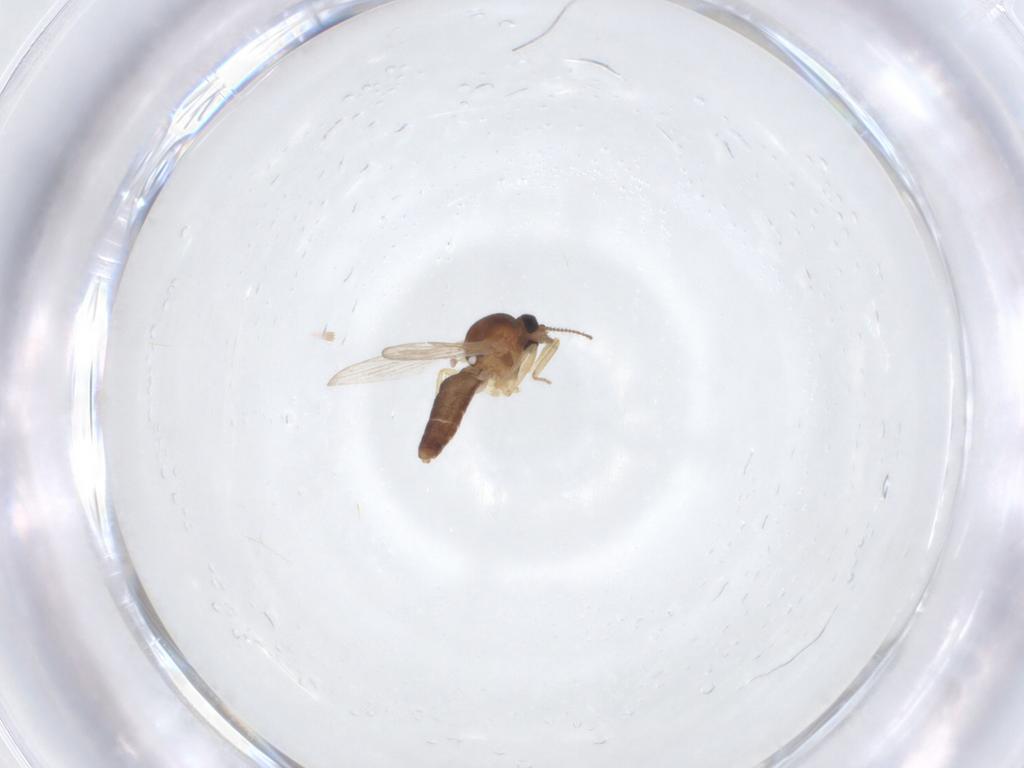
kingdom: Animalia
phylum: Arthropoda
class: Insecta
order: Diptera
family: Ceratopogonidae
